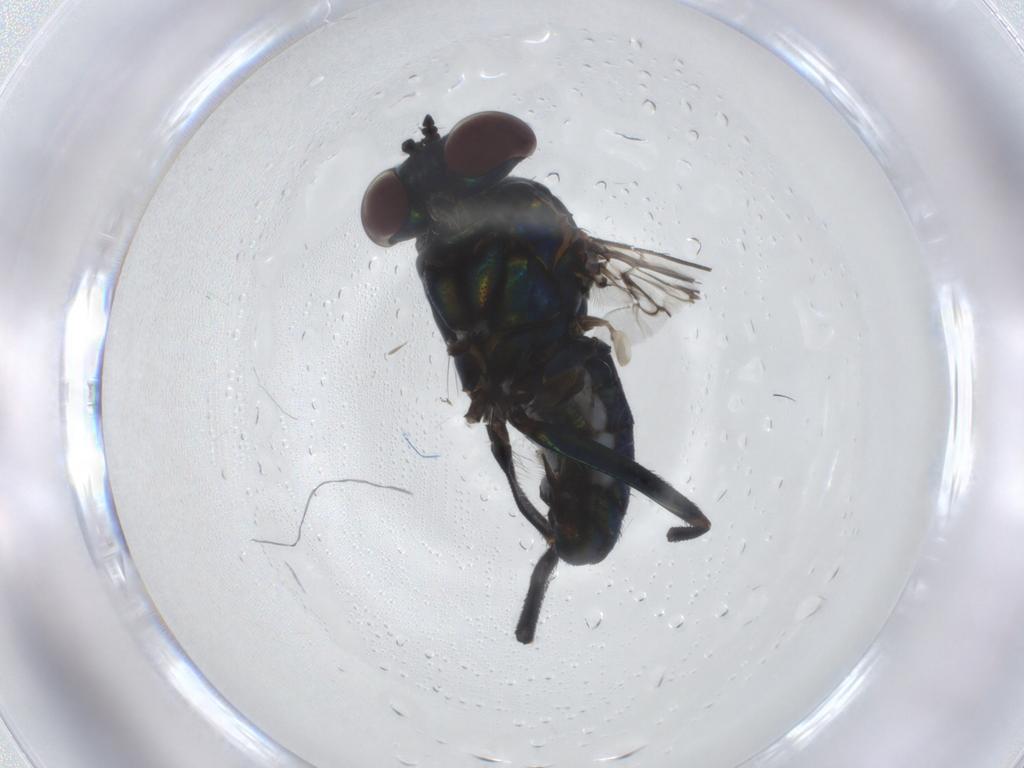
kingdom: Animalia
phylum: Arthropoda
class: Insecta
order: Diptera
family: Dolichopodidae
